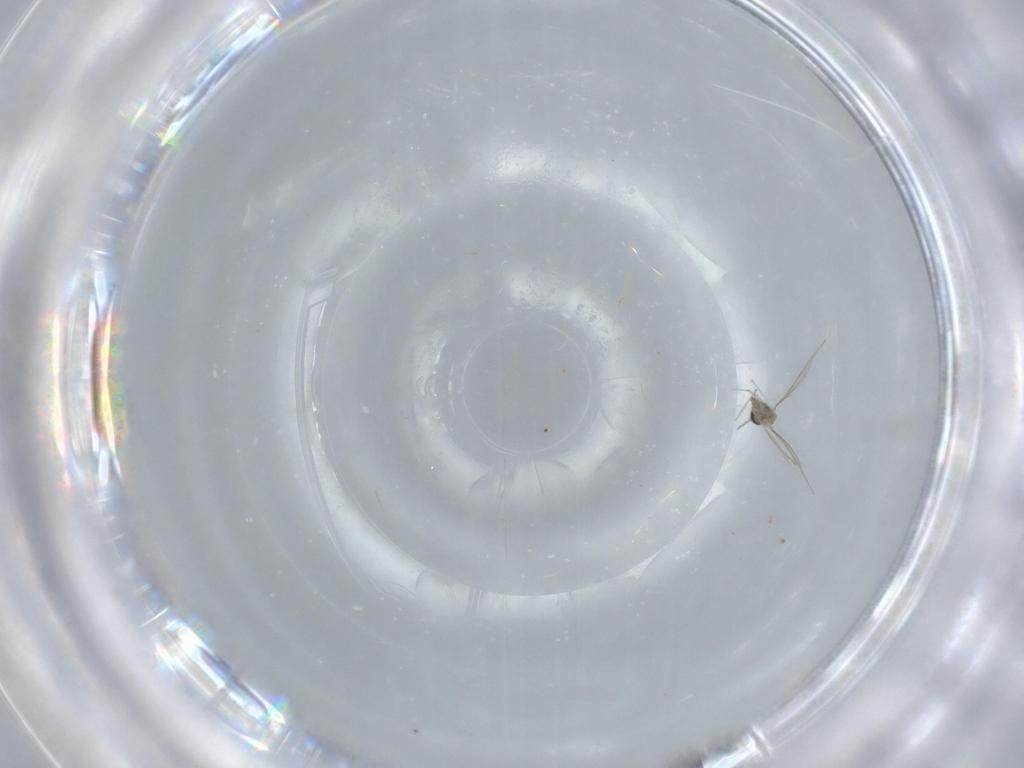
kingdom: Animalia
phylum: Arthropoda
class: Insecta
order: Diptera
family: Cecidomyiidae
